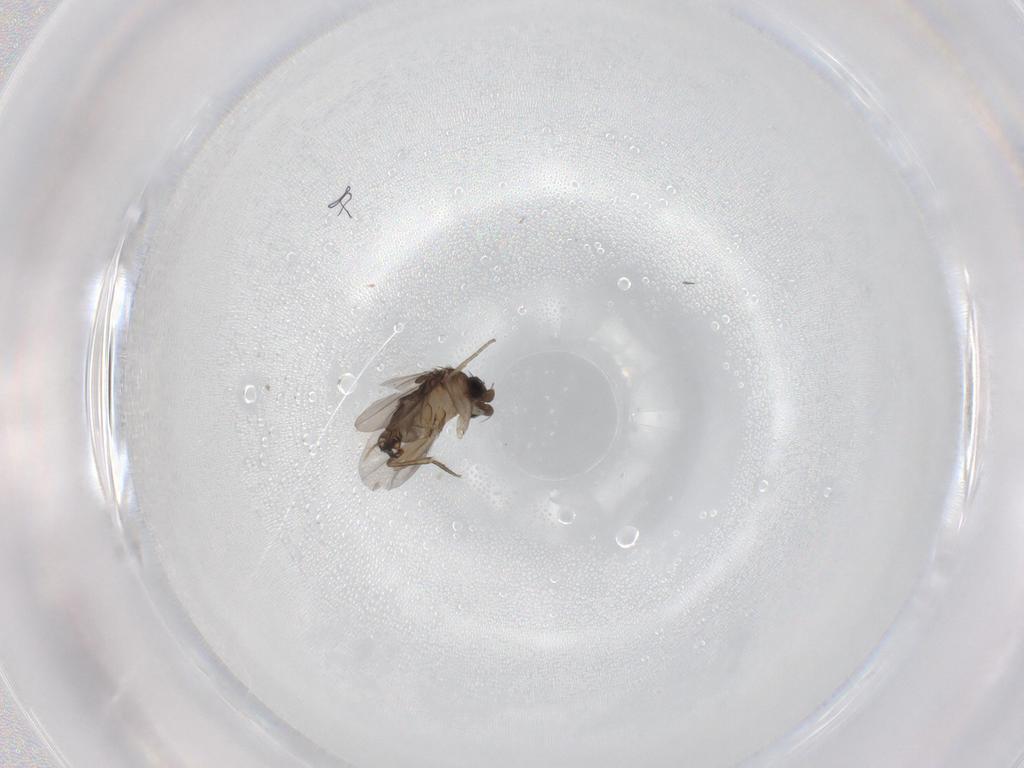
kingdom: Animalia
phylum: Arthropoda
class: Insecta
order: Diptera
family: Phoridae
